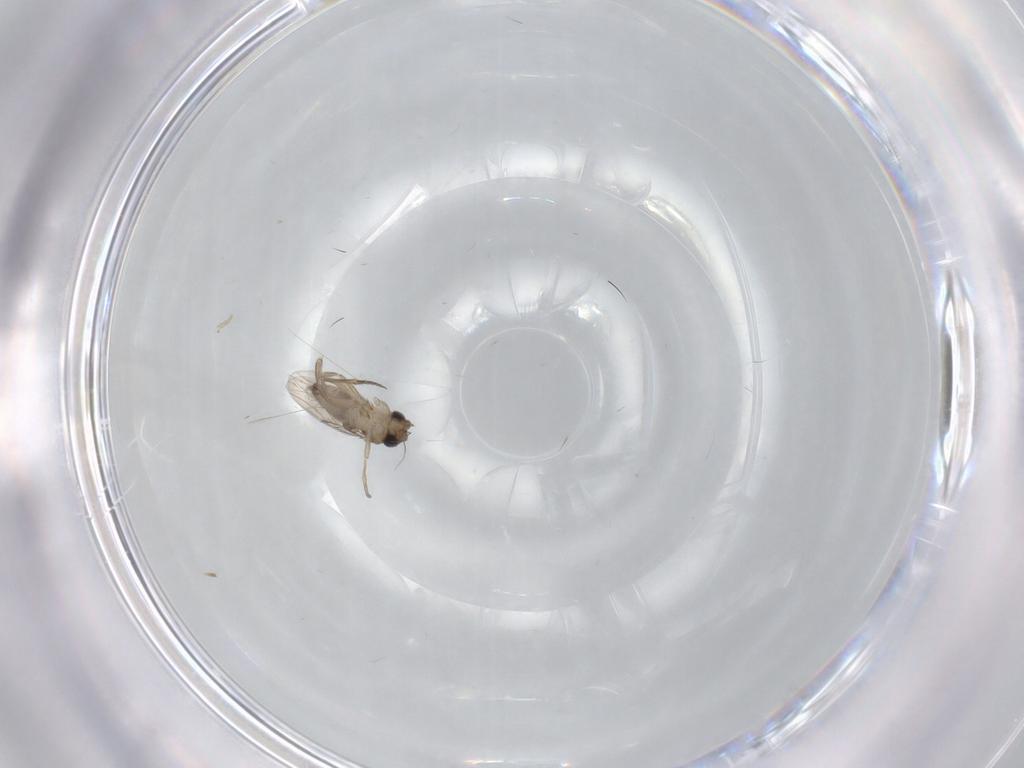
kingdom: Animalia
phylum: Arthropoda
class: Insecta
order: Diptera
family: Phoridae
